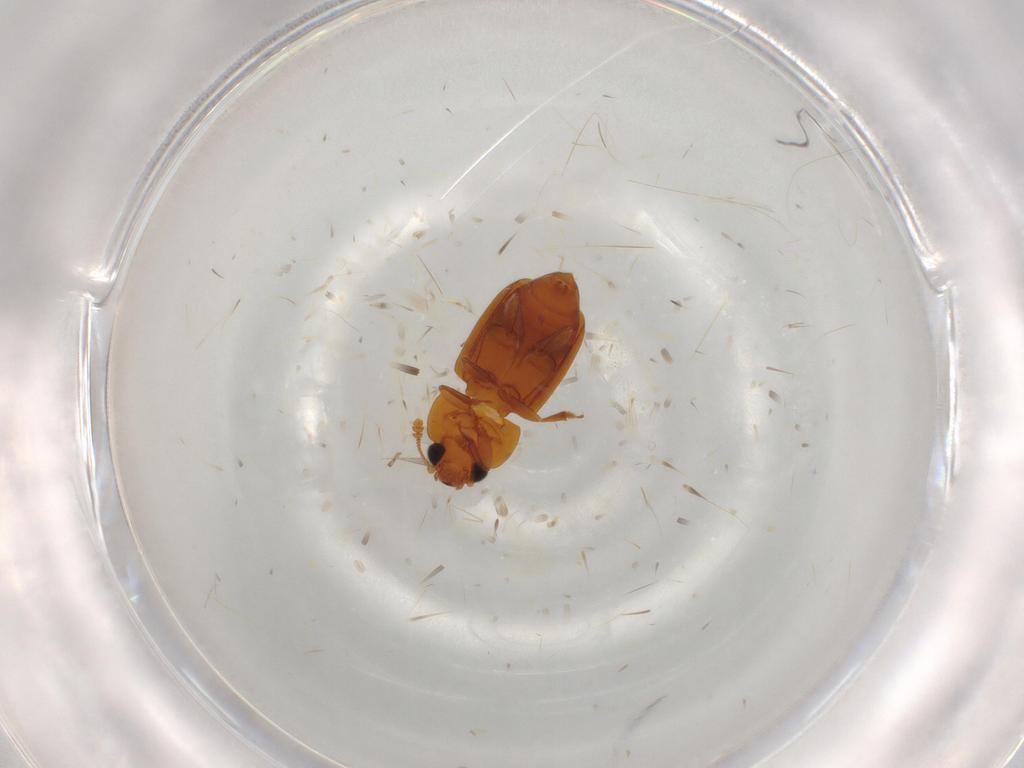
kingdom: Animalia
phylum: Arthropoda
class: Insecta
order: Coleoptera
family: Nitidulidae
